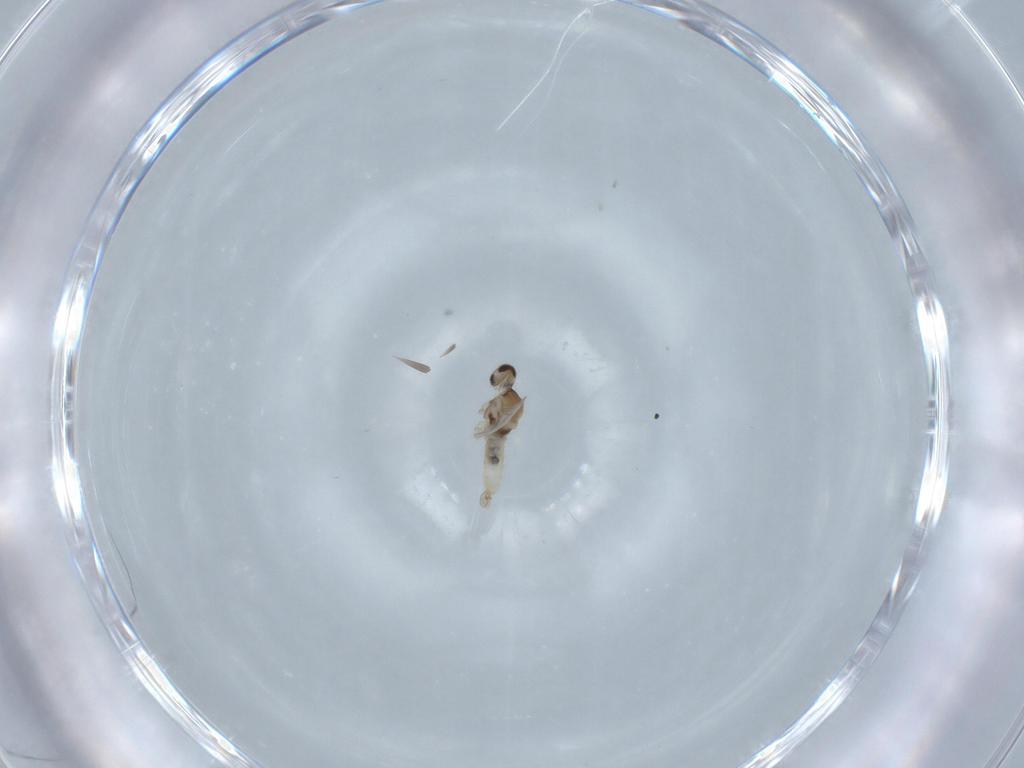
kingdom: Animalia
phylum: Arthropoda
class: Insecta
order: Diptera
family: Cecidomyiidae
